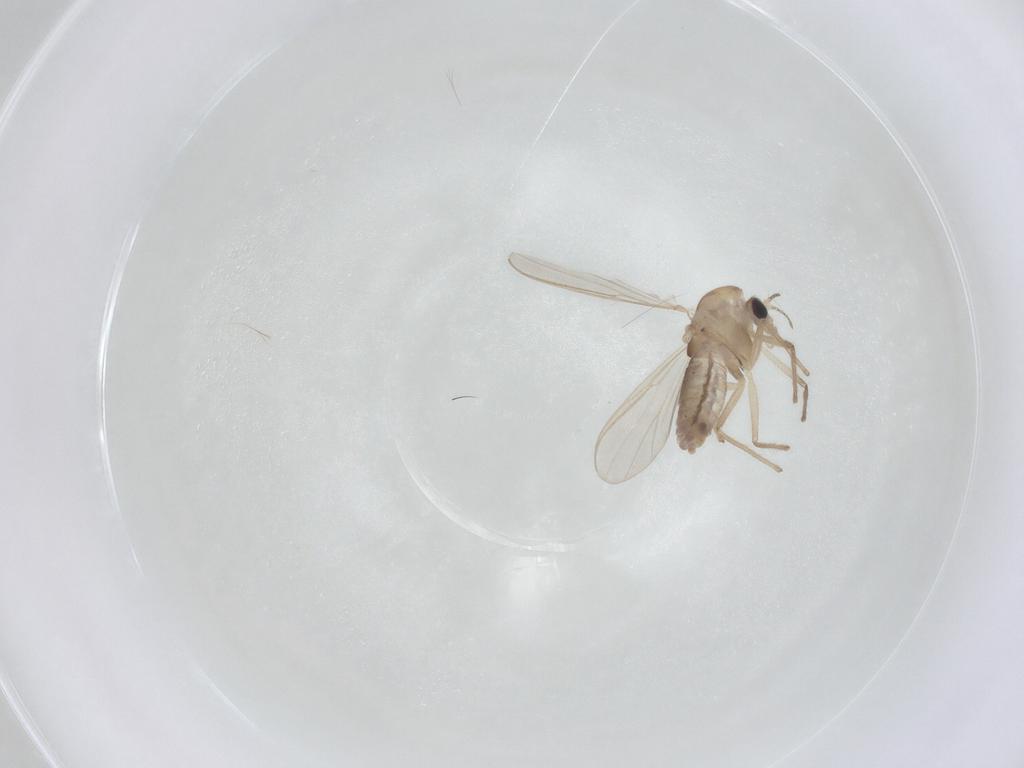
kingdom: Animalia
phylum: Arthropoda
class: Insecta
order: Diptera
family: Chironomidae
